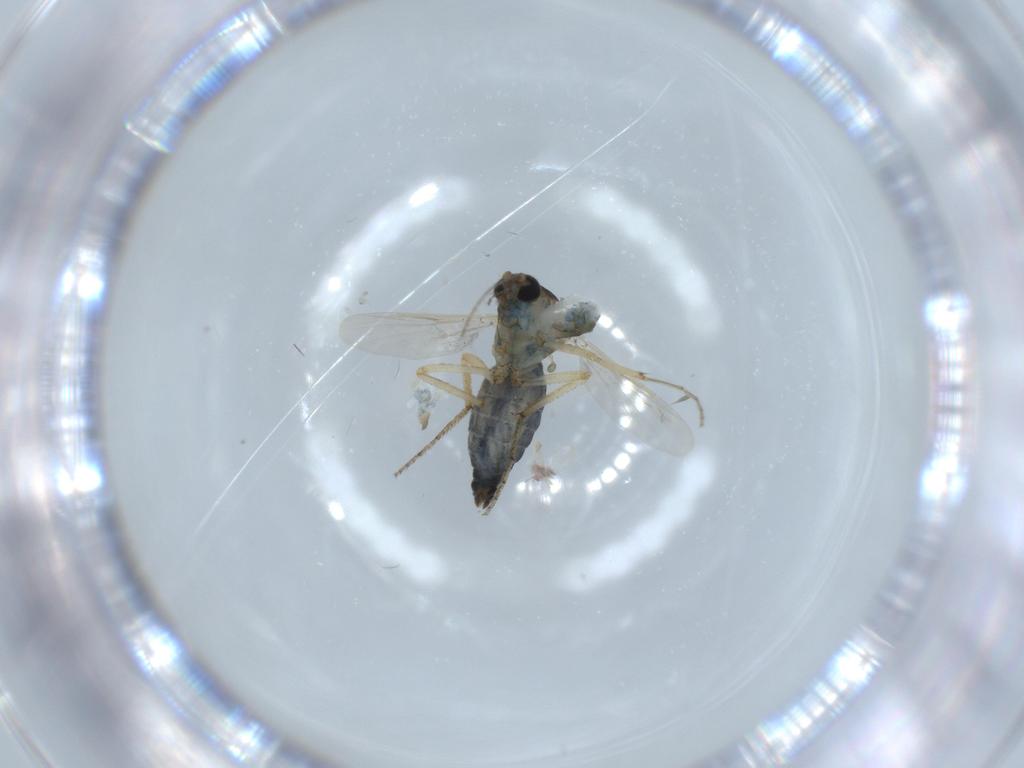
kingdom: Animalia
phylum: Arthropoda
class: Insecta
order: Diptera
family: Ceratopogonidae
